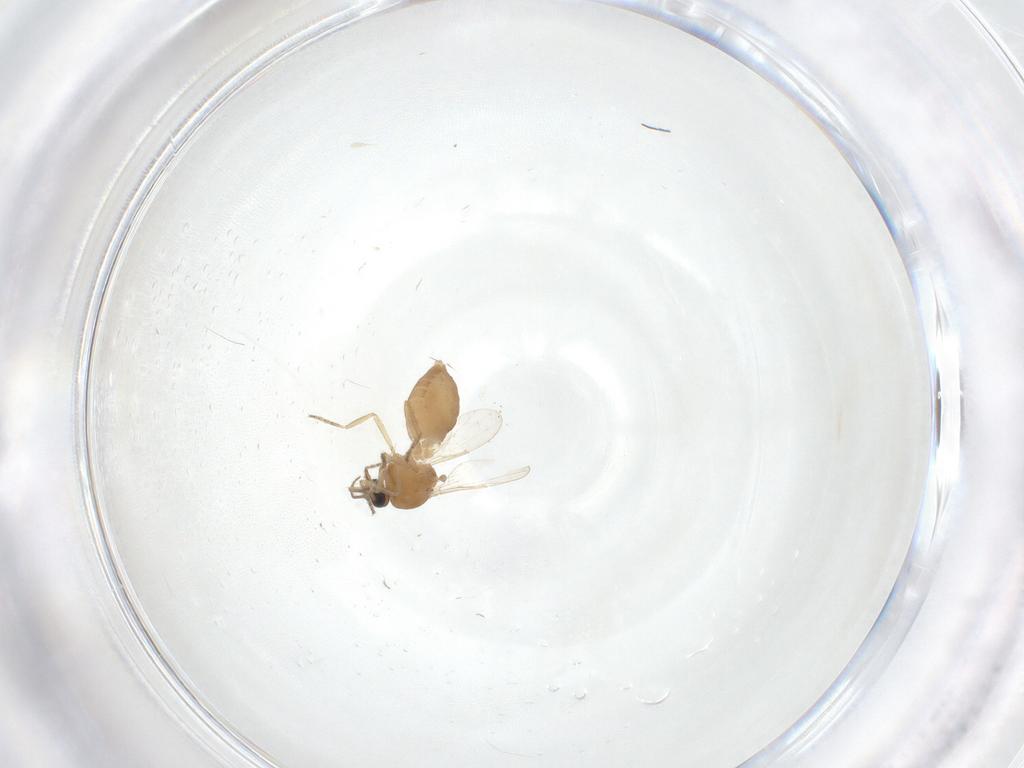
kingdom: Animalia
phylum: Arthropoda
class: Insecta
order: Diptera
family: Ceratopogonidae
